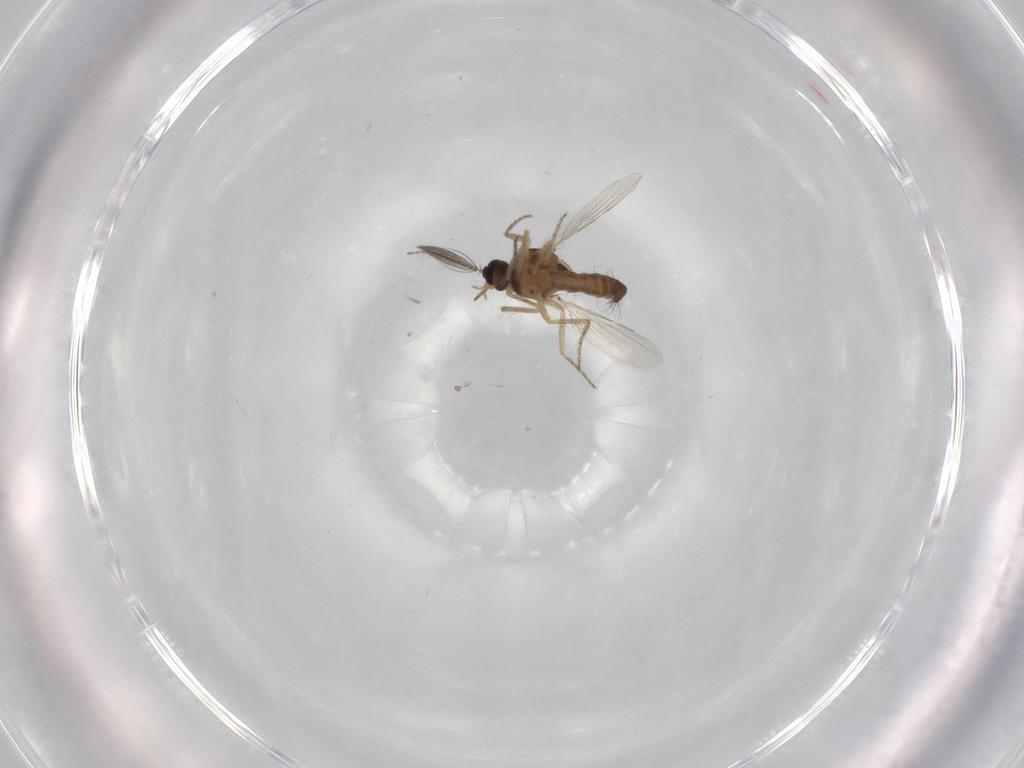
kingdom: Animalia
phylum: Arthropoda
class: Insecta
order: Diptera
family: Ceratopogonidae
